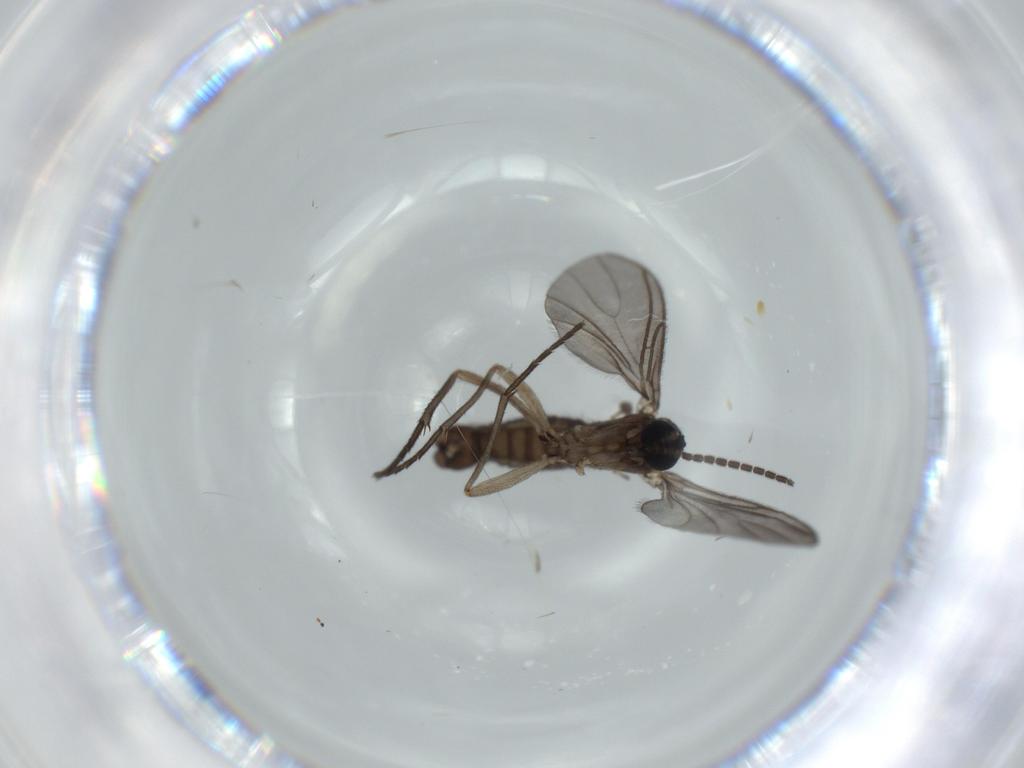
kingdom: Animalia
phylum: Arthropoda
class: Insecta
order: Diptera
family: Sciaridae
